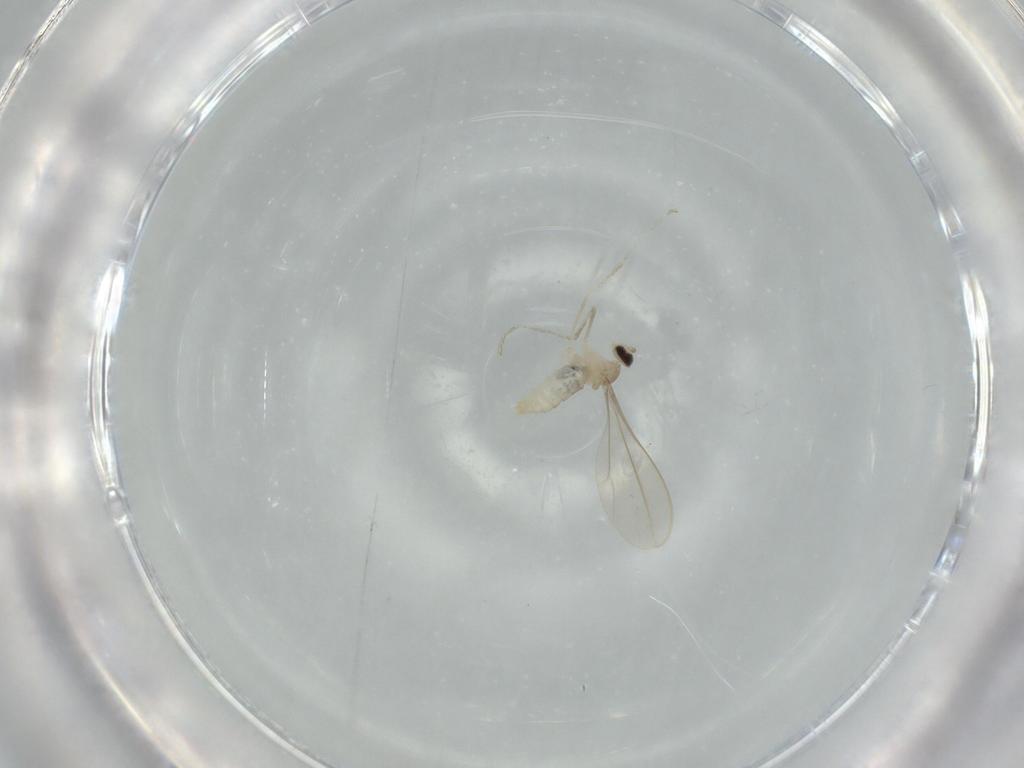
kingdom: Animalia
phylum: Arthropoda
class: Insecta
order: Diptera
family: Cecidomyiidae
